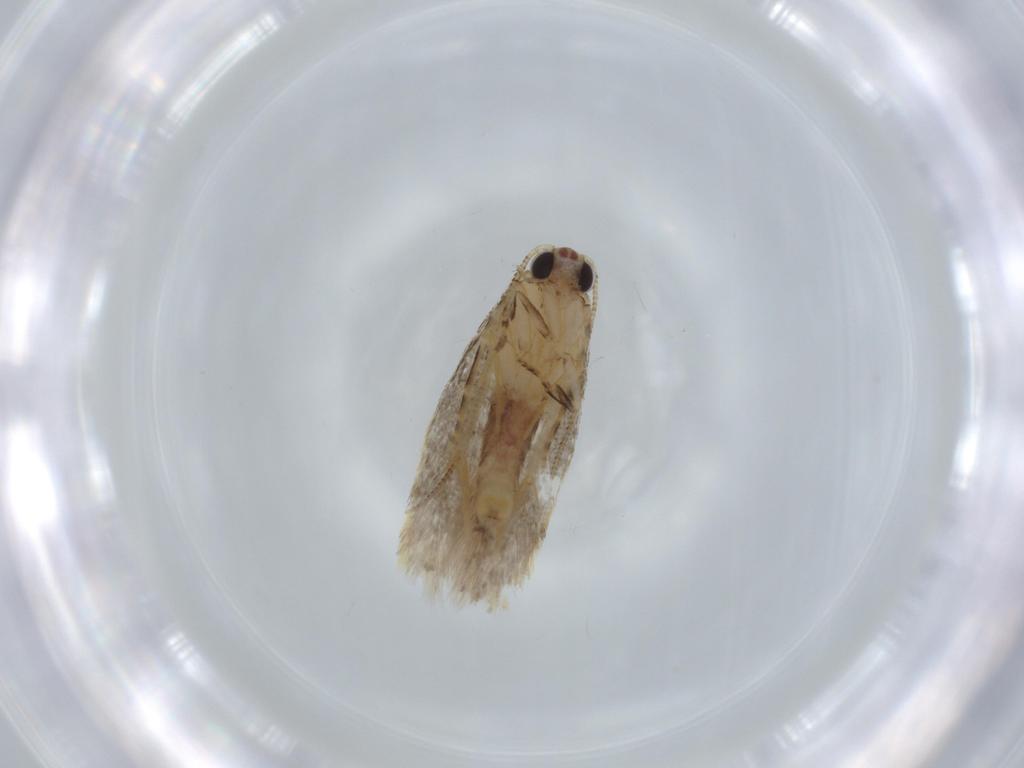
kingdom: Animalia
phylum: Arthropoda
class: Insecta
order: Lepidoptera
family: Tineidae
